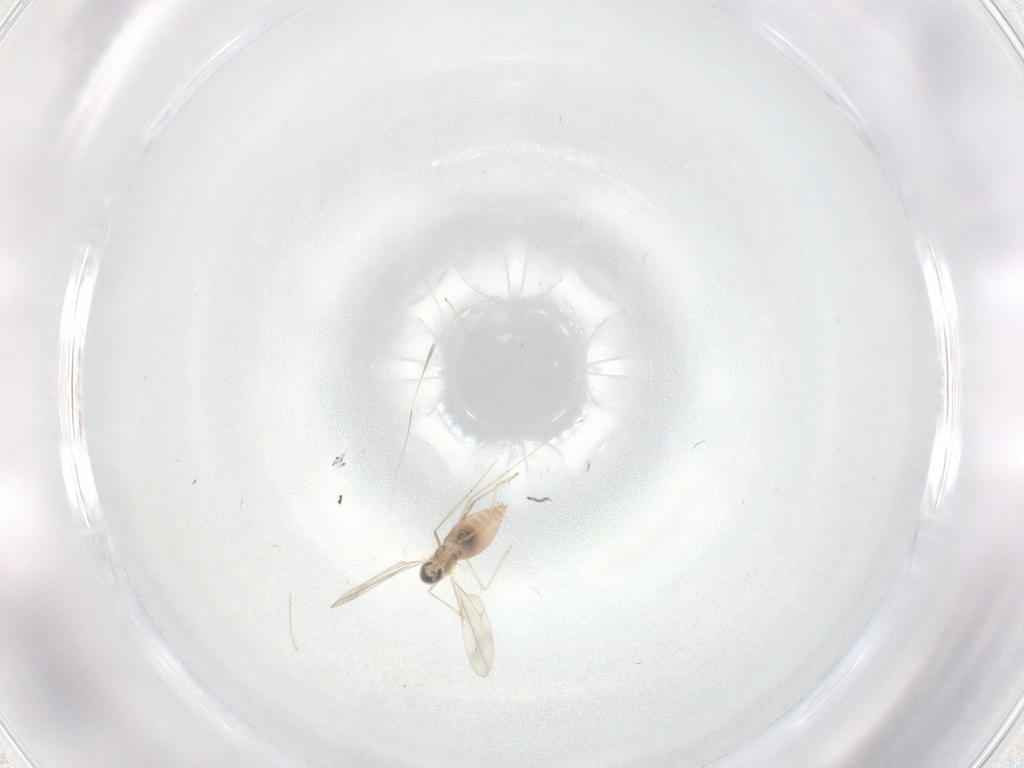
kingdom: Animalia
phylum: Arthropoda
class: Insecta
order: Diptera
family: Cecidomyiidae
